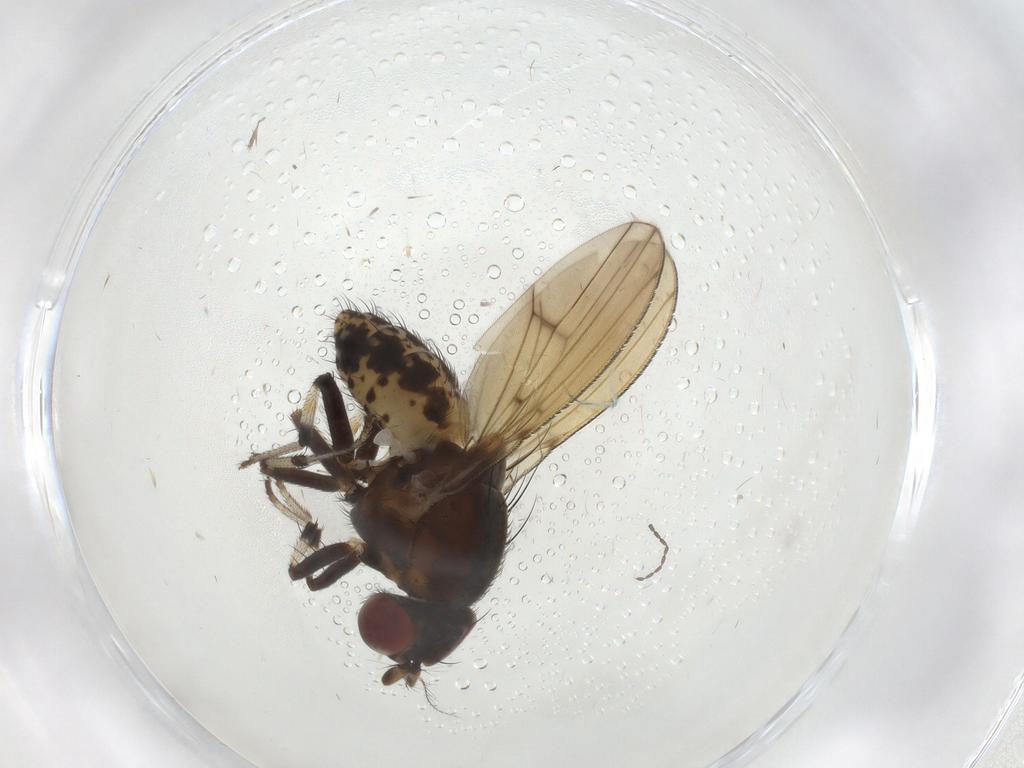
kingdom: Animalia
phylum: Arthropoda
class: Insecta
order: Diptera
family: Lauxaniidae
